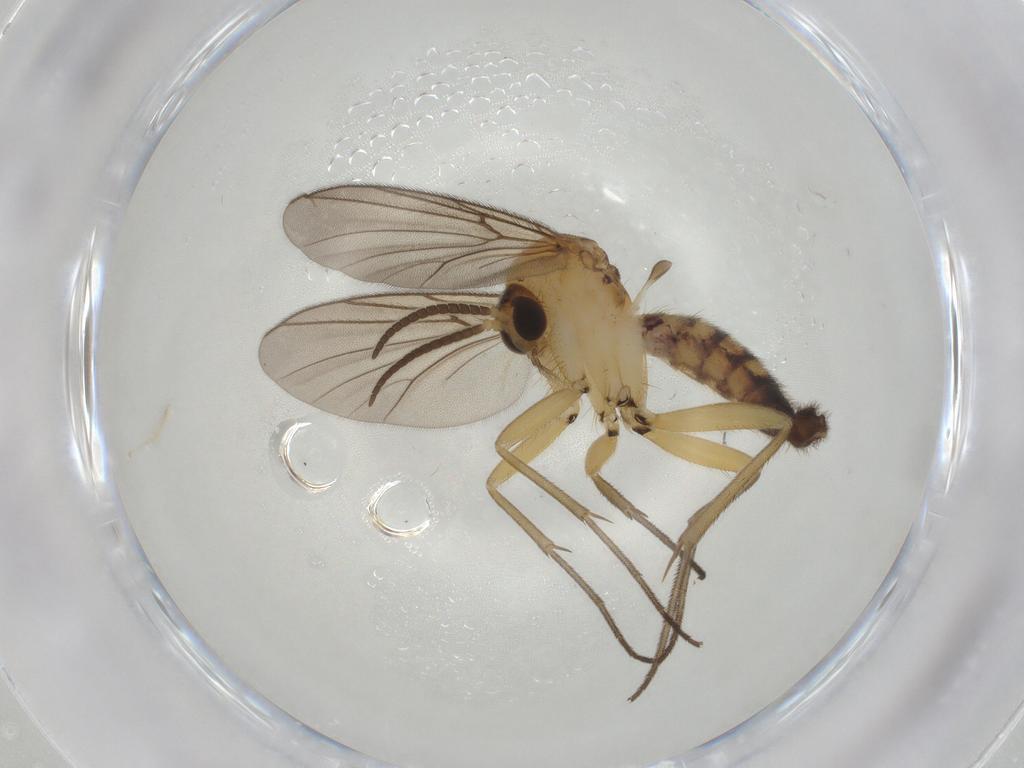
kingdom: Animalia
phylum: Arthropoda
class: Insecta
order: Diptera
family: Mycetophilidae
